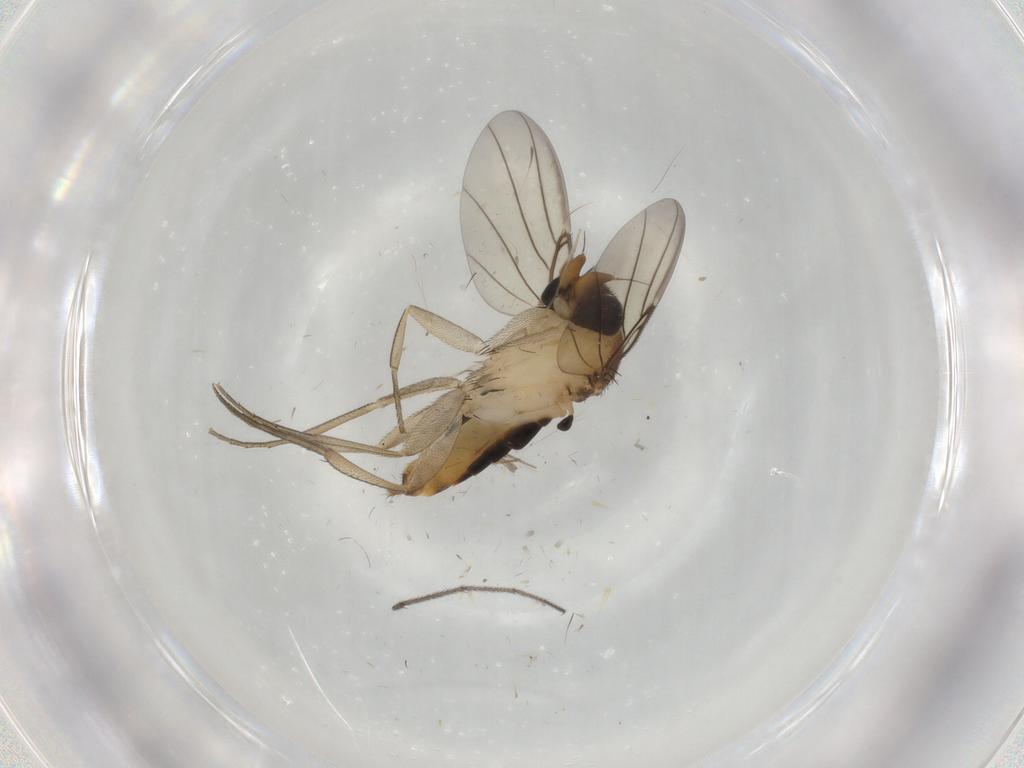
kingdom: Animalia
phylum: Arthropoda
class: Insecta
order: Diptera
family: Phoridae
